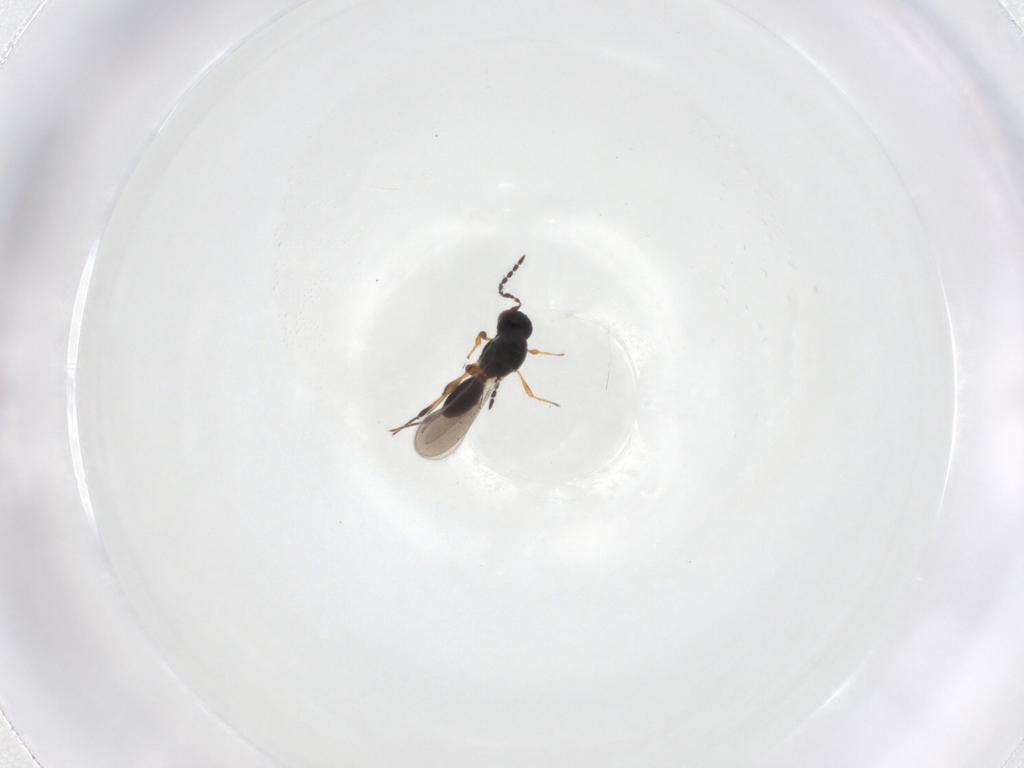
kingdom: Animalia
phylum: Arthropoda
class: Insecta
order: Hymenoptera
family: Platygastridae
